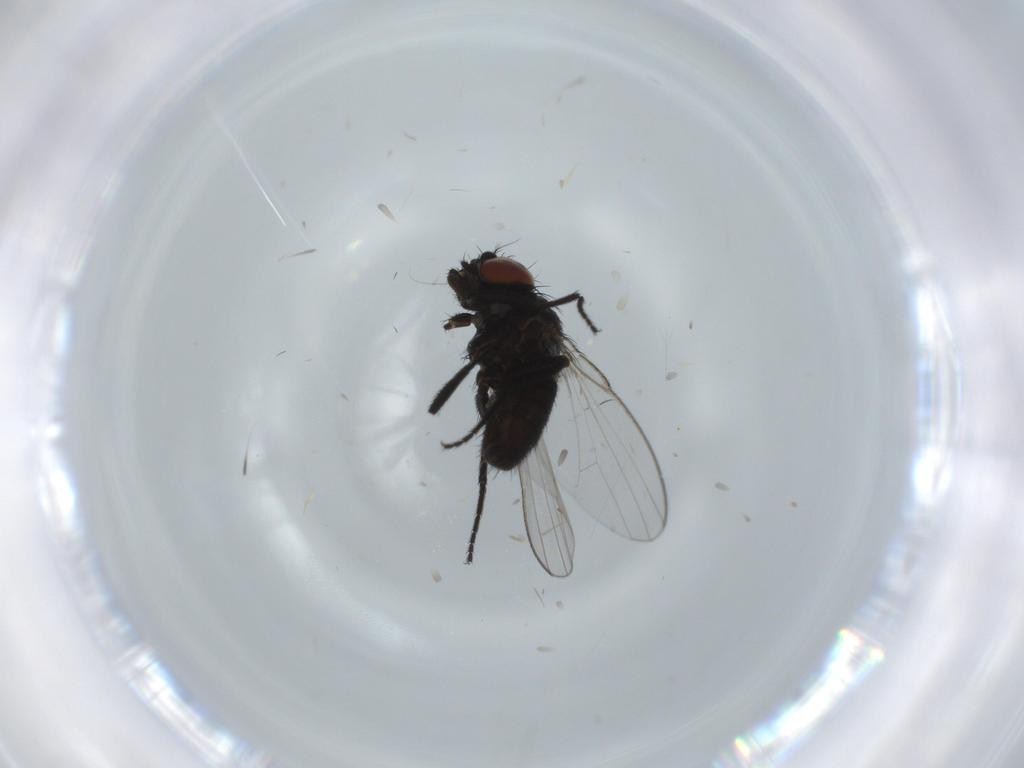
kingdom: Animalia
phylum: Arthropoda
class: Insecta
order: Diptera
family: Milichiidae
